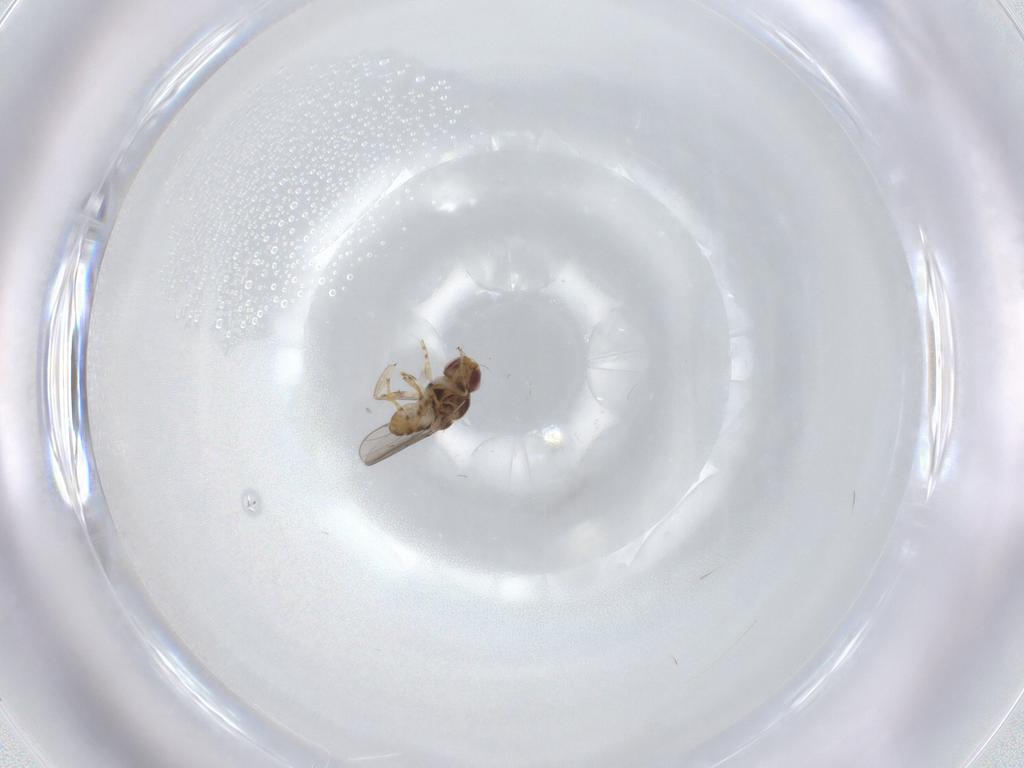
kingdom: Animalia
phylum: Arthropoda
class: Insecta
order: Diptera
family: Sciaridae
